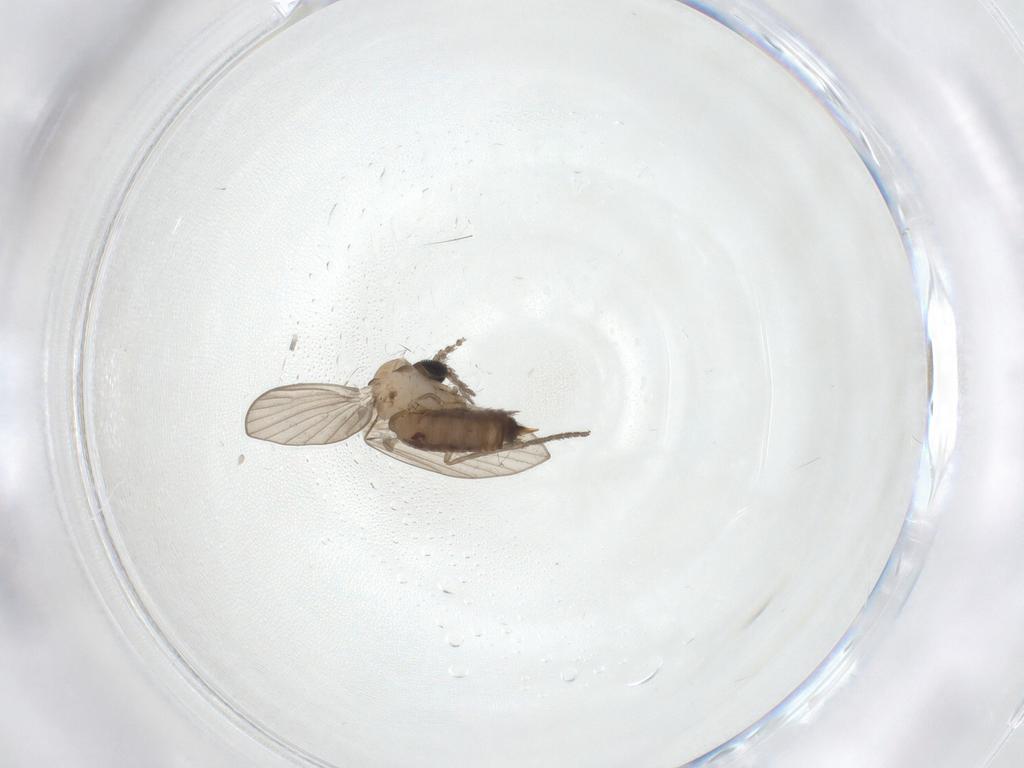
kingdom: Animalia
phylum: Arthropoda
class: Insecta
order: Diptera
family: Psychodidae
